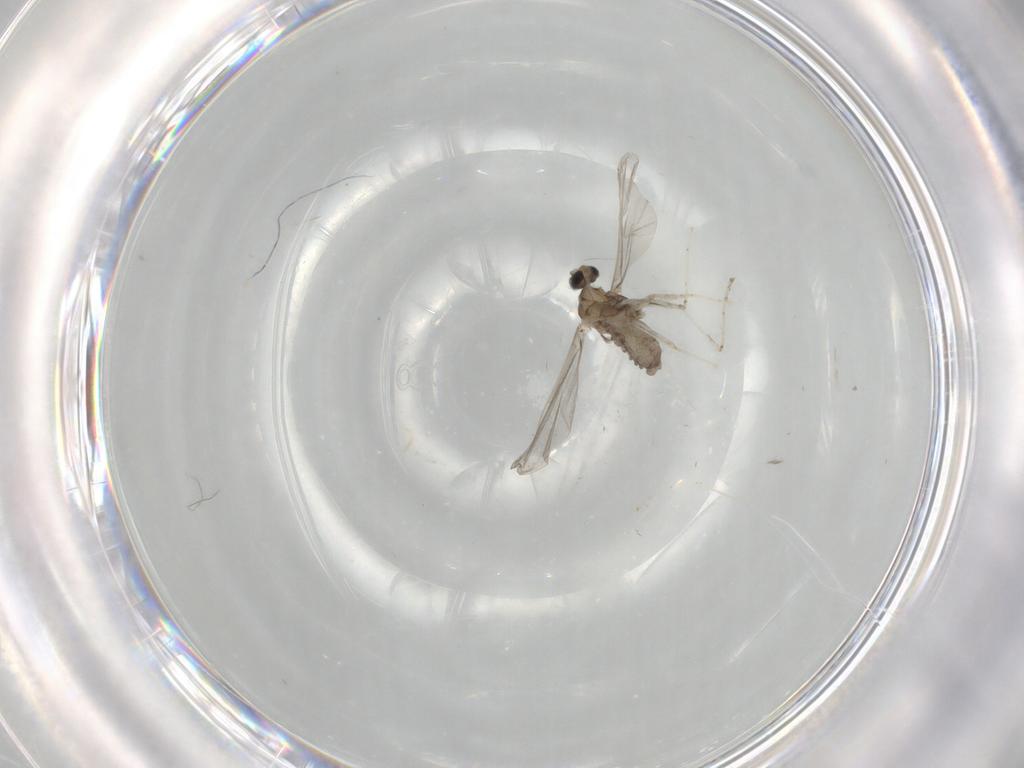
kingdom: Animalia
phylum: Arthropoda
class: Insecta
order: Diptera
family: Cecidomyiidae
